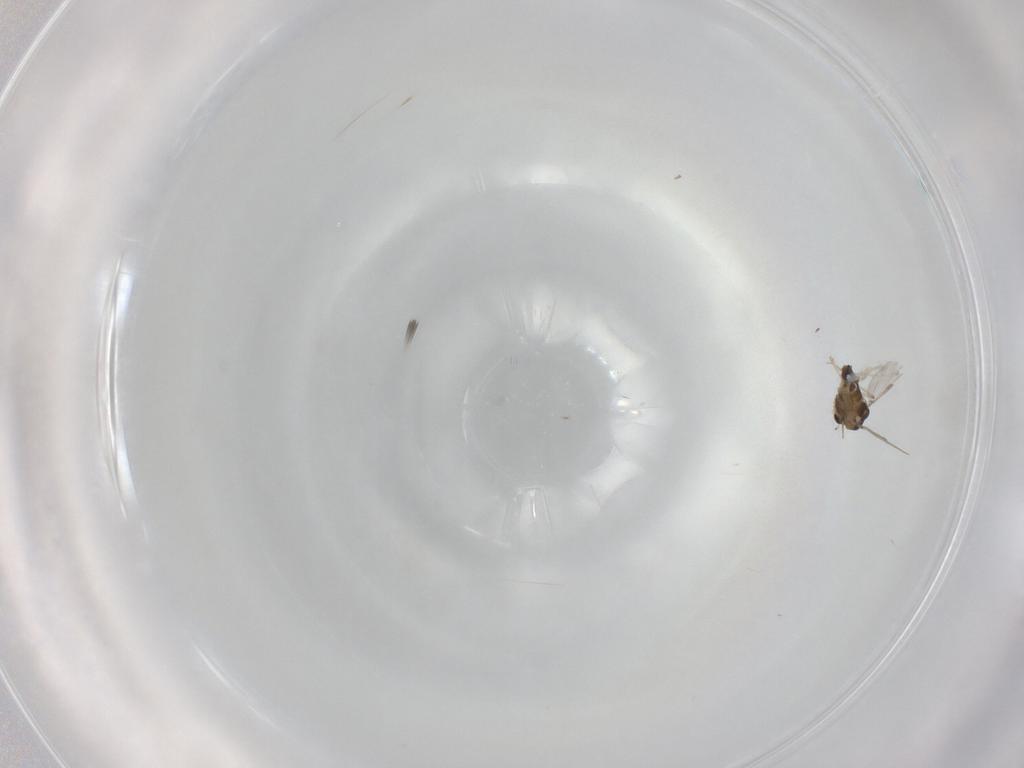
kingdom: Animalia
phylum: Arthropoda
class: Insecta
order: Diptera
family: Chironomidae
